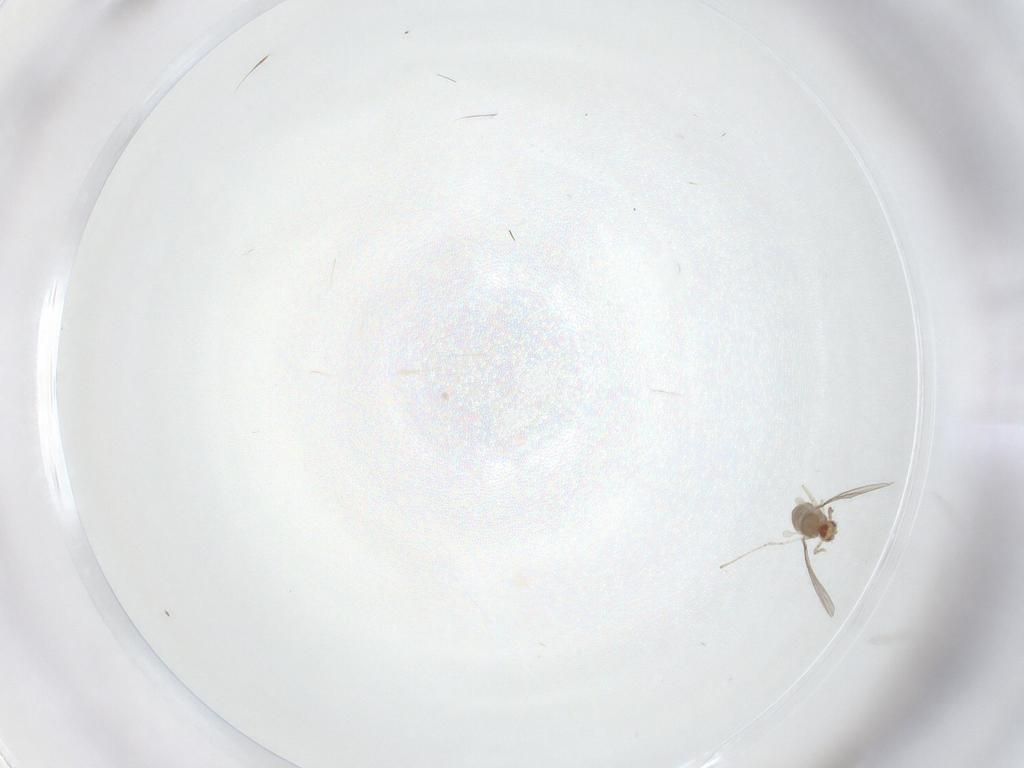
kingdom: Animalia
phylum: Arthropoda
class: Insecta
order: Diptera
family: Cecidomyiidae
